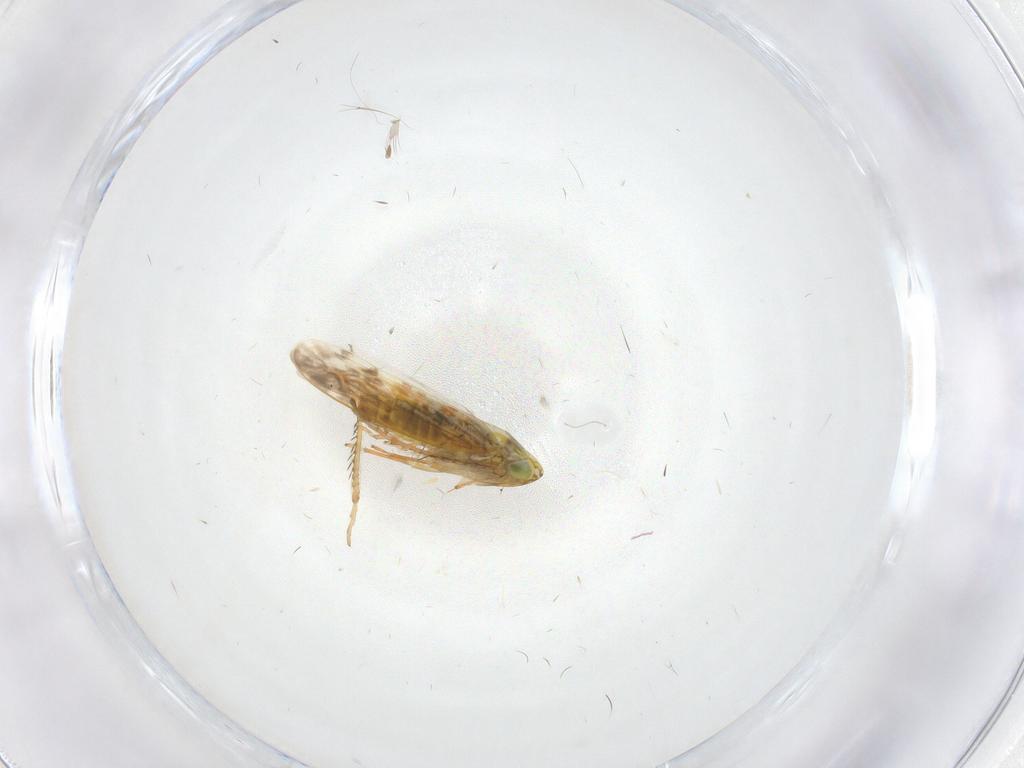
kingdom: Animalia
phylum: Arthropoda
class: Insecta
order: Hemiptera
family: Cicadellidae
